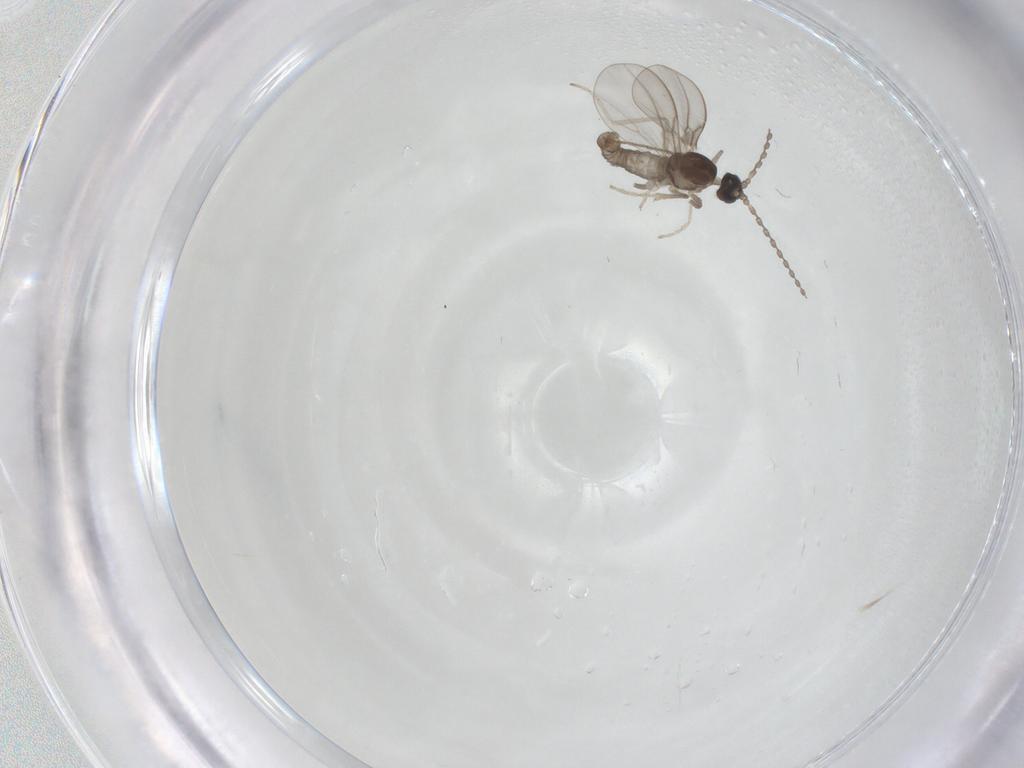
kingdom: Animalia
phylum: Arthropoda
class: Insecta
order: Diptera
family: Cecidomyiidae
